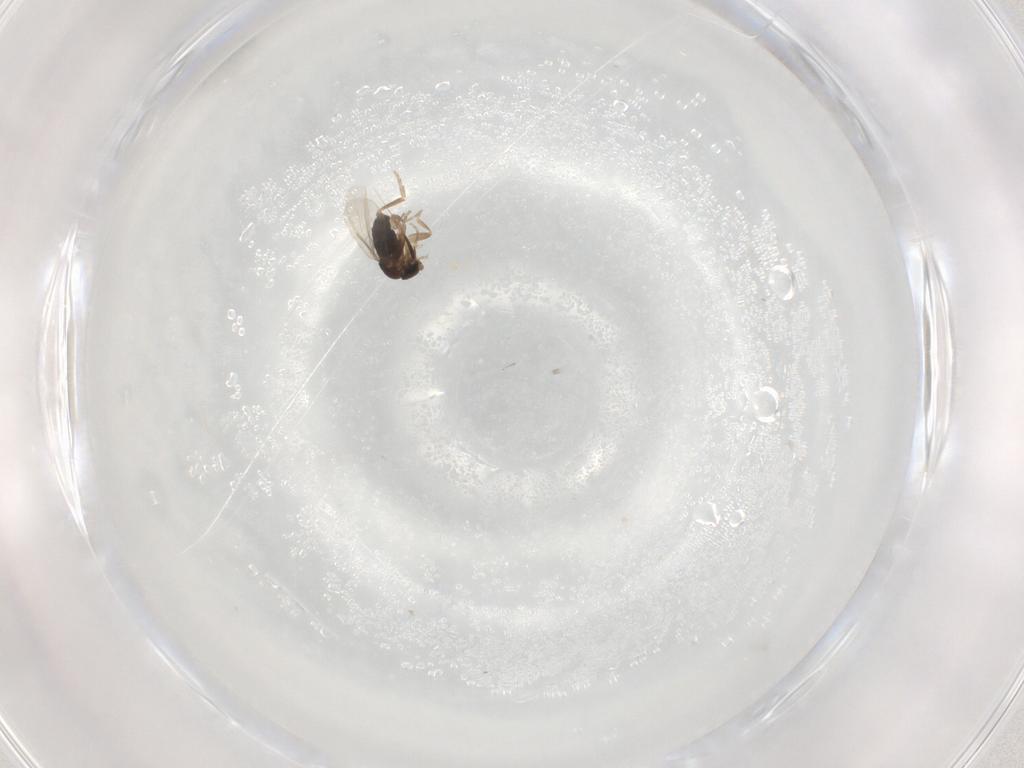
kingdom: Animalia
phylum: Arthropoda
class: Insecta
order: Diptera
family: Phoridae
